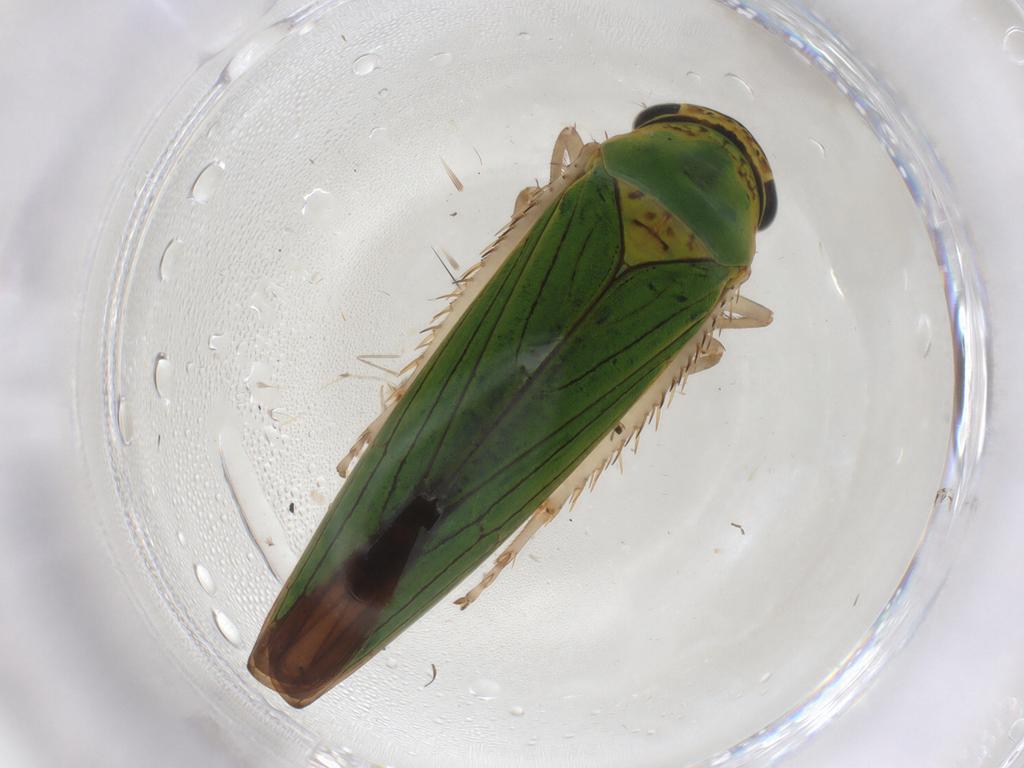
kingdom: Animalia
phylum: Arthropoda
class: Insecta
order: Hemiptera
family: Cicadellidae
